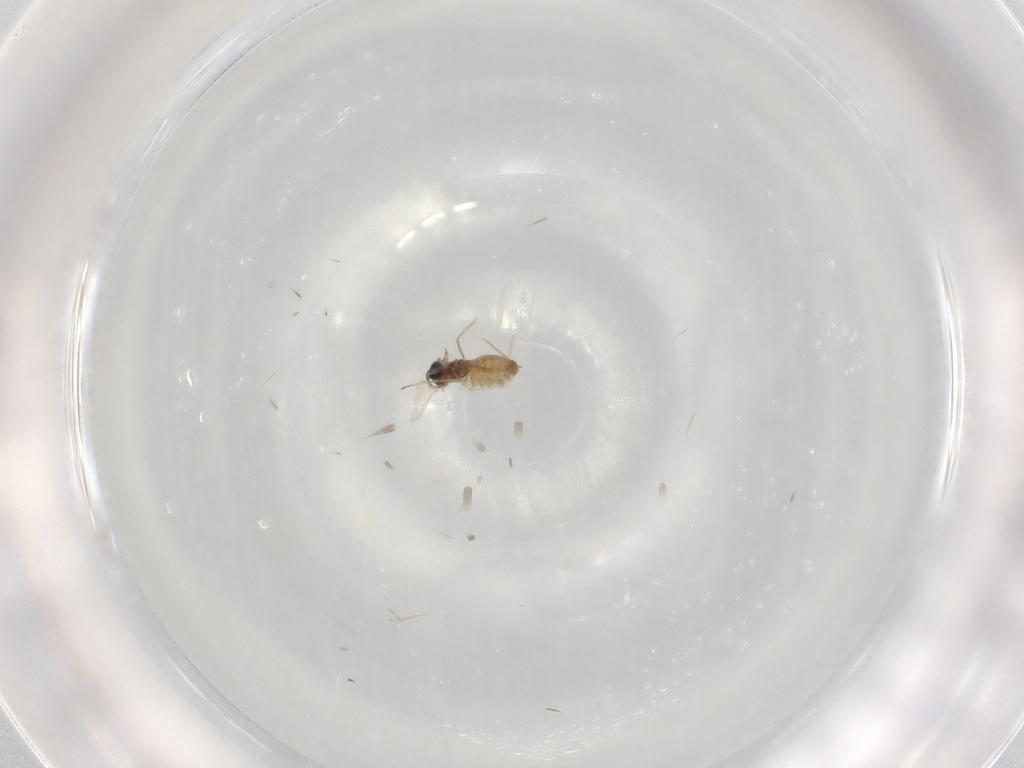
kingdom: Animalia
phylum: Arthropoda
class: Insecta
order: Diptera
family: Cecidomyiidae
